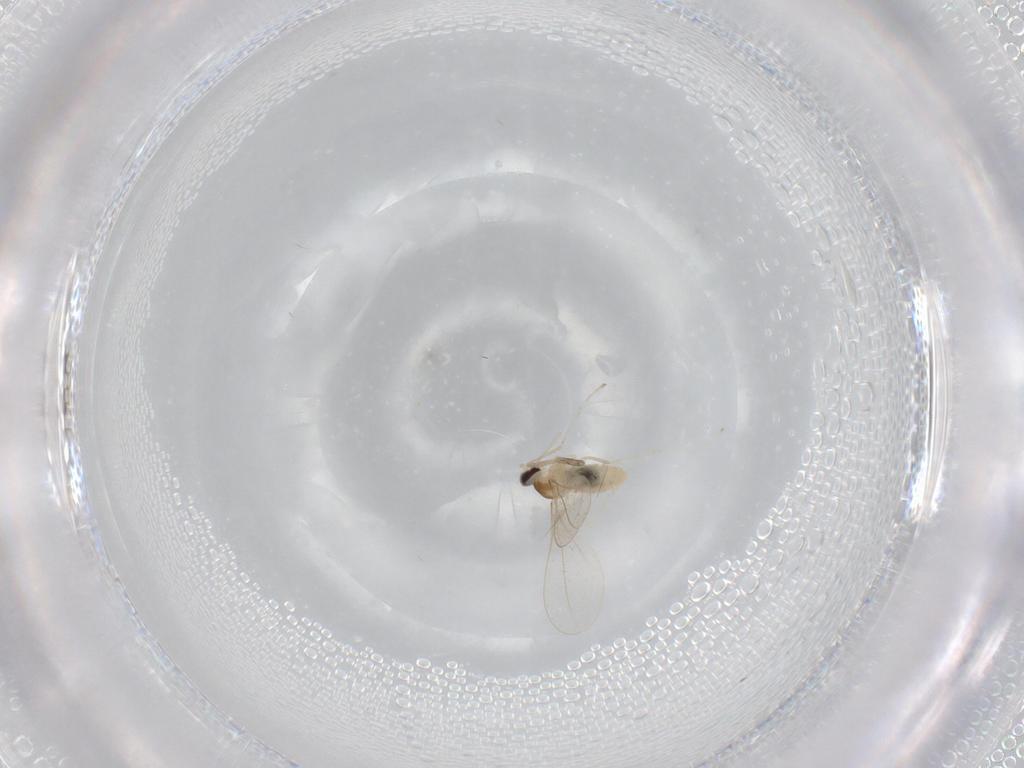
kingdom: Animalia
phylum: Arthropoda
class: Insecta
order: Diptera
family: Cecidomyiidae
